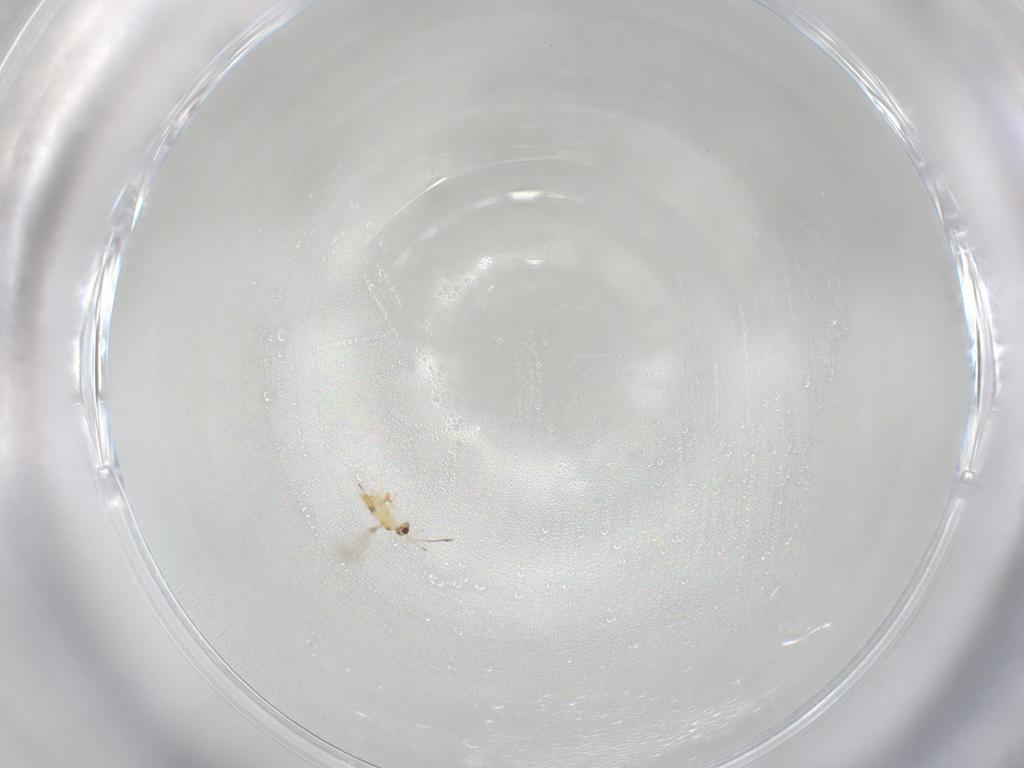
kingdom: Animalia
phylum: Arthropoda
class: Insecta
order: Hymenoptera
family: Mymaridae
